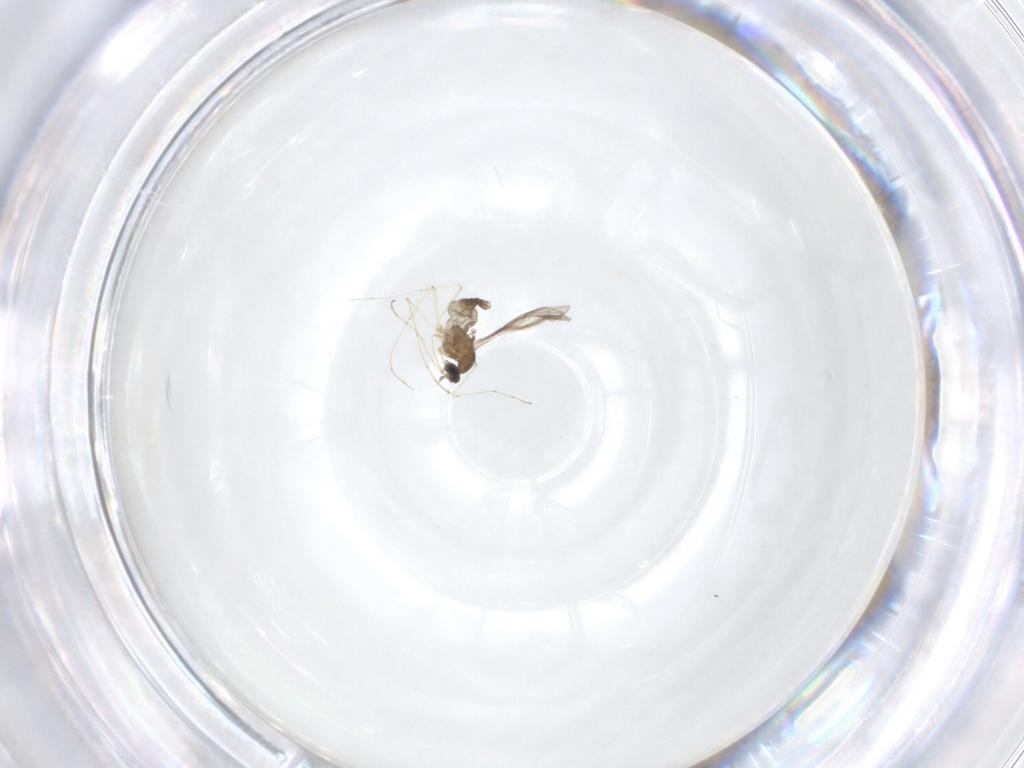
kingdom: Animalia
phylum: Arthropoda
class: Insecta
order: Diptera
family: Cecidomyiidae
